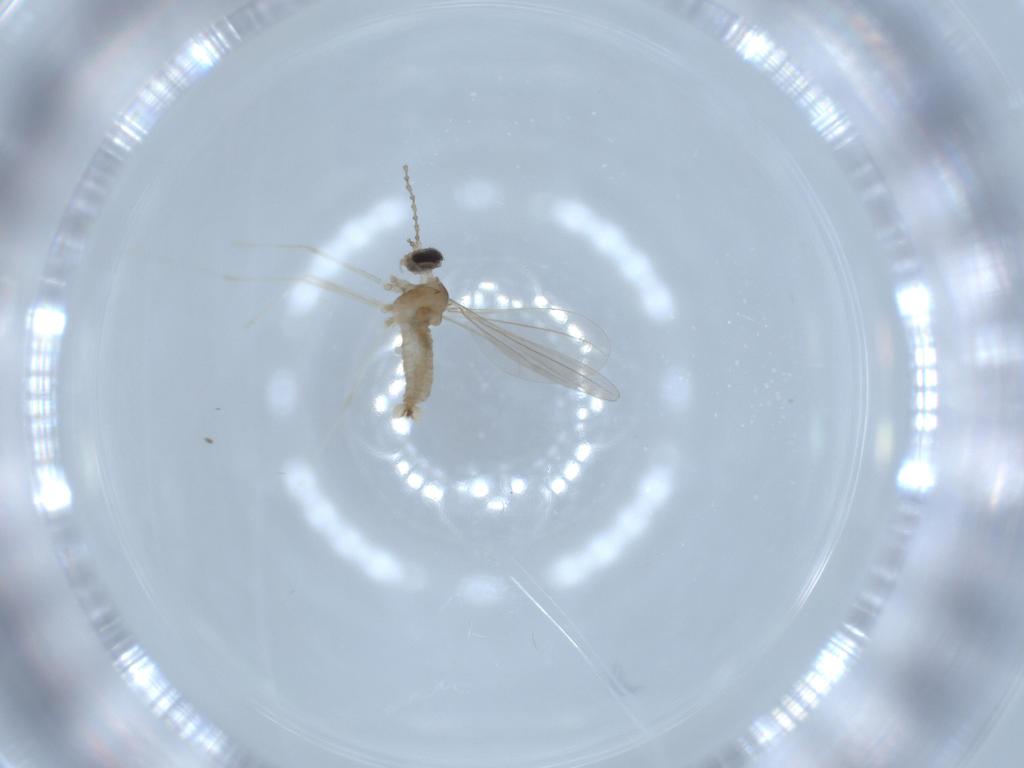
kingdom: Animalia
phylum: Arthropoda
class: Insecta
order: Diptera
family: Cecidomyiidae
